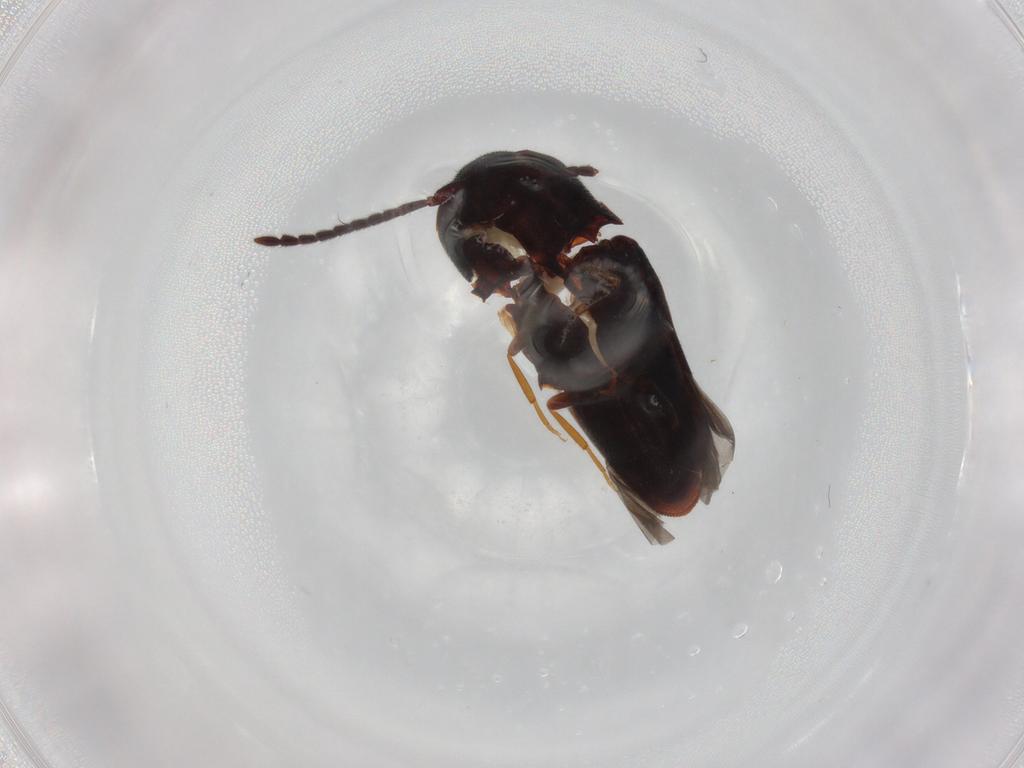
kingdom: Animalia
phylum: Arthropoda
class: Insecta
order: Coleoptera
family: Eucnemidae
